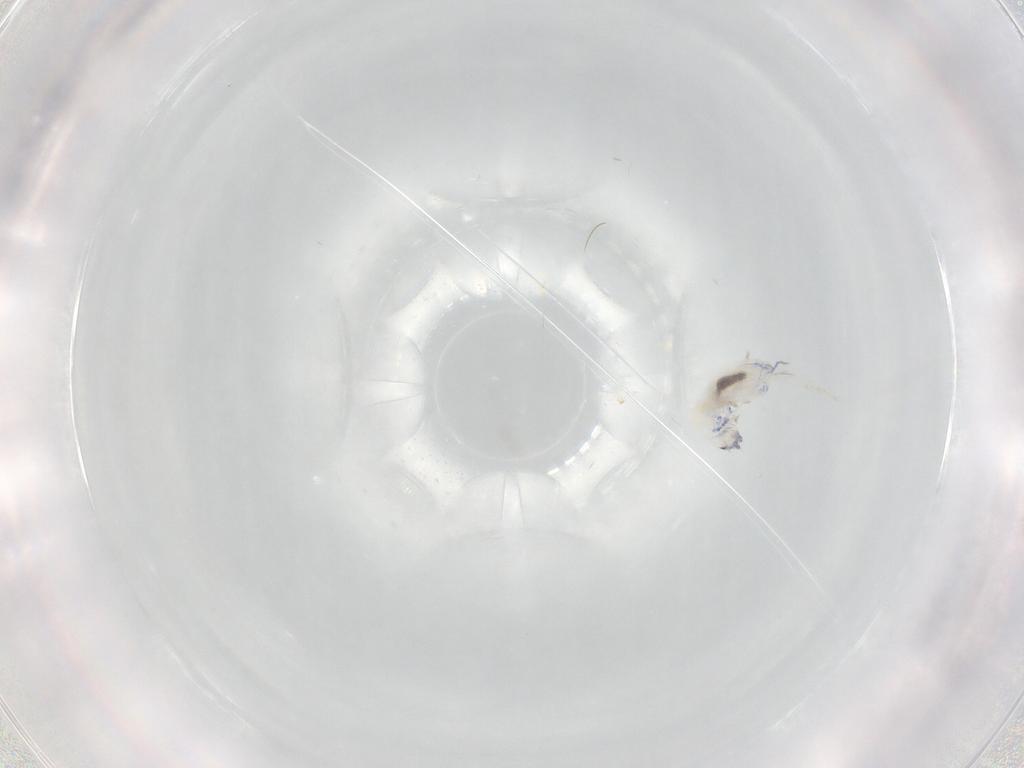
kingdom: Animalia
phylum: Arthropoda
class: Collembola
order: Entomobryomorpha
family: Entomobryidae
